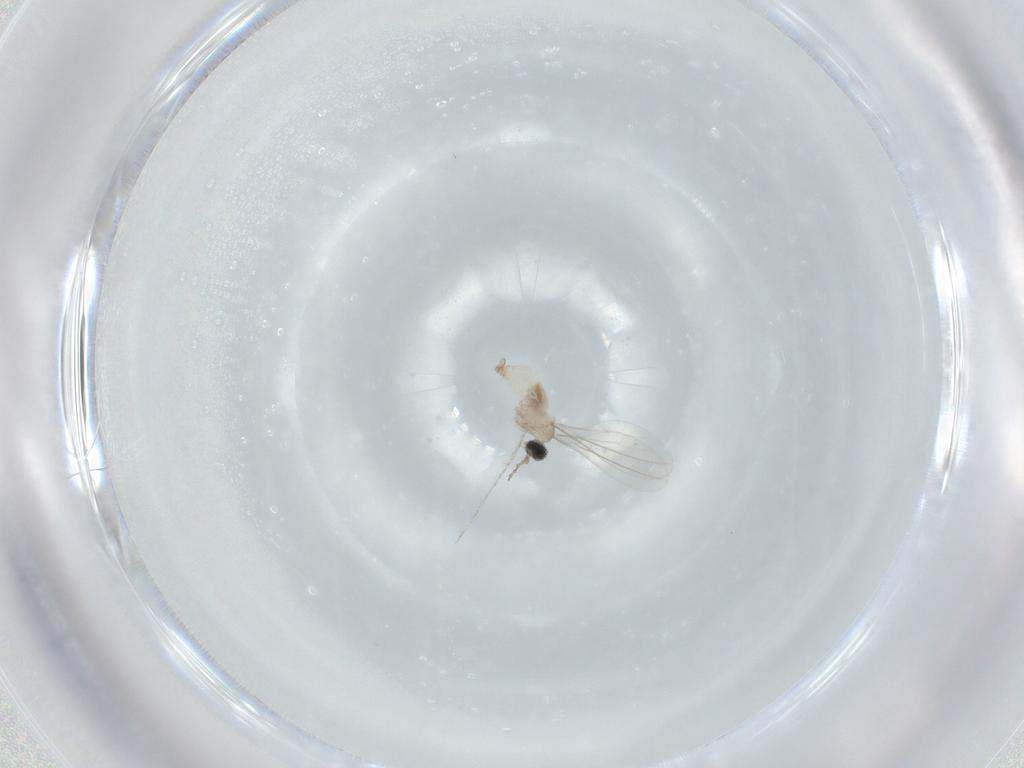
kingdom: Animalia
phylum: Arthropoda
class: Insecta
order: Diptera
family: Cecidomyiidae
